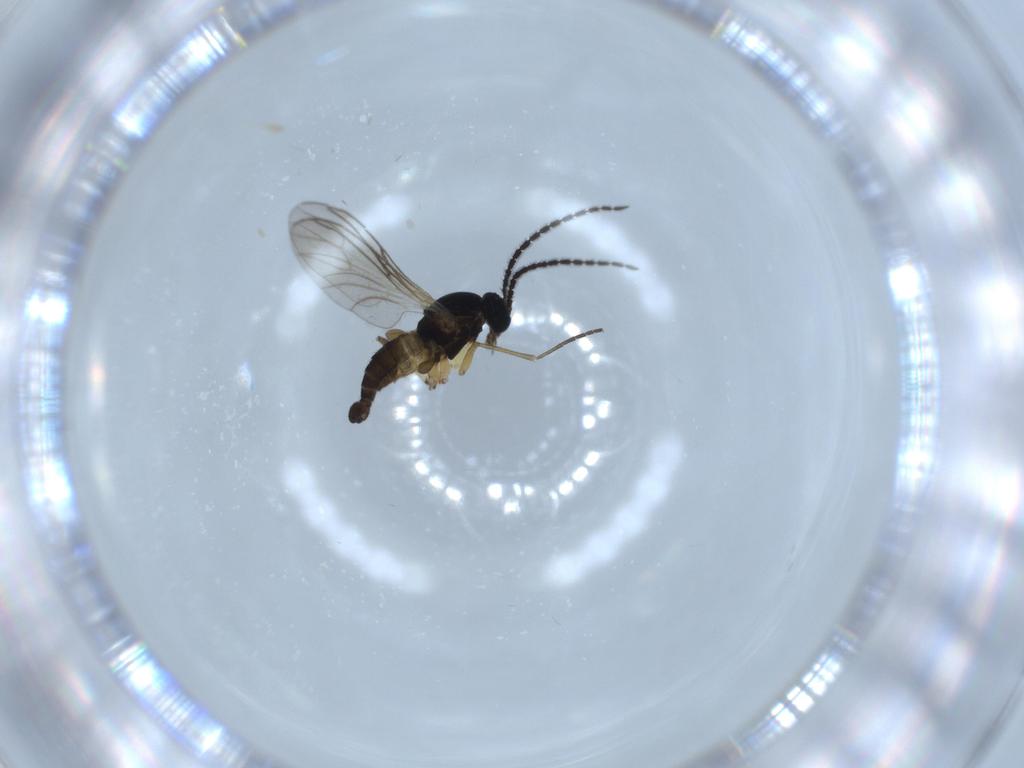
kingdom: Animalia
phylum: Arthropoda
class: Insecta
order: Diptera
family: Sciaridae
